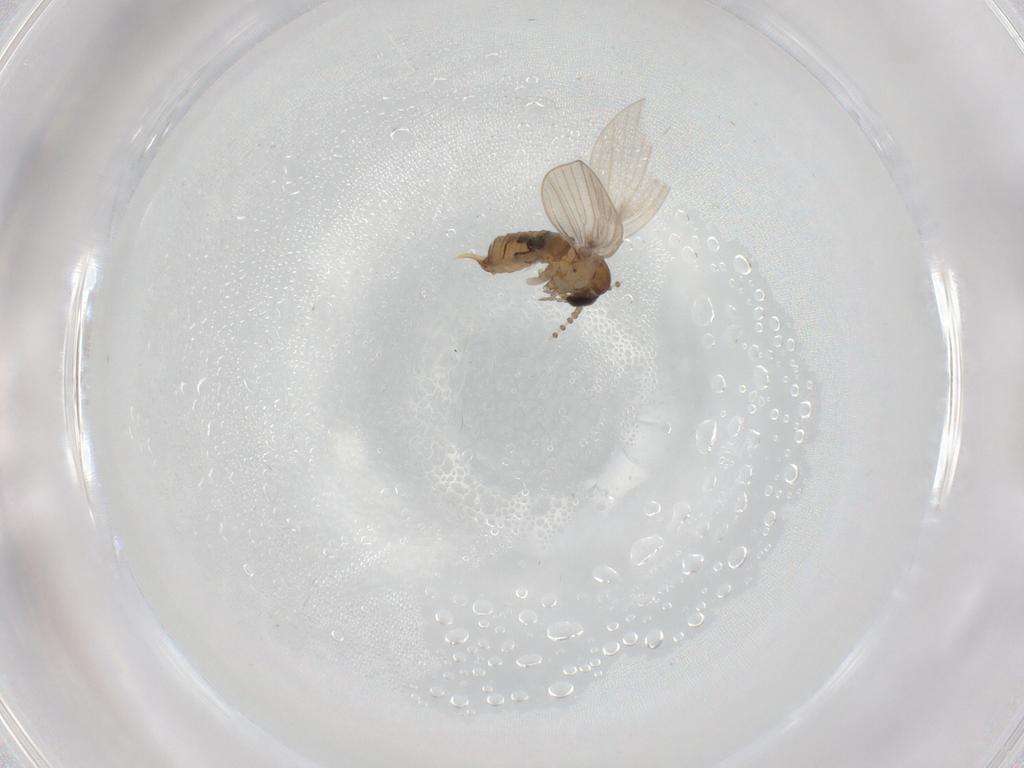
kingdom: Animalia
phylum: Arthropoda
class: Insecta
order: Diptera
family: Psychodidae
